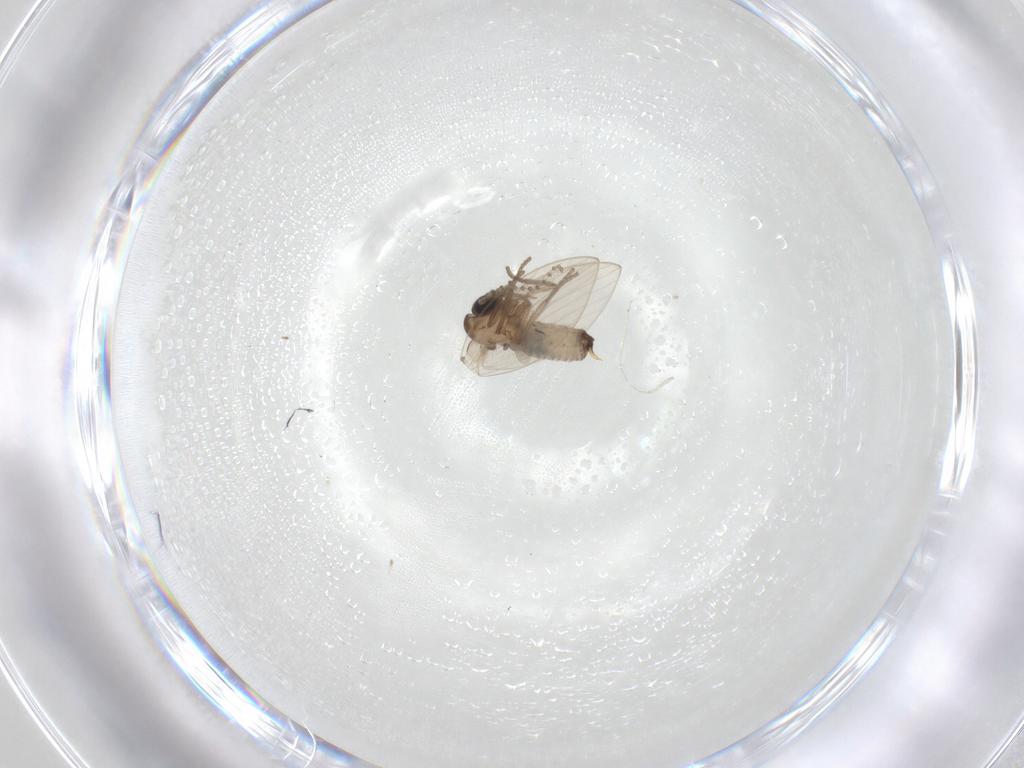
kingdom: Animalia
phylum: Arthropoda
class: Insecta
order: Diptera
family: Psychodidae
